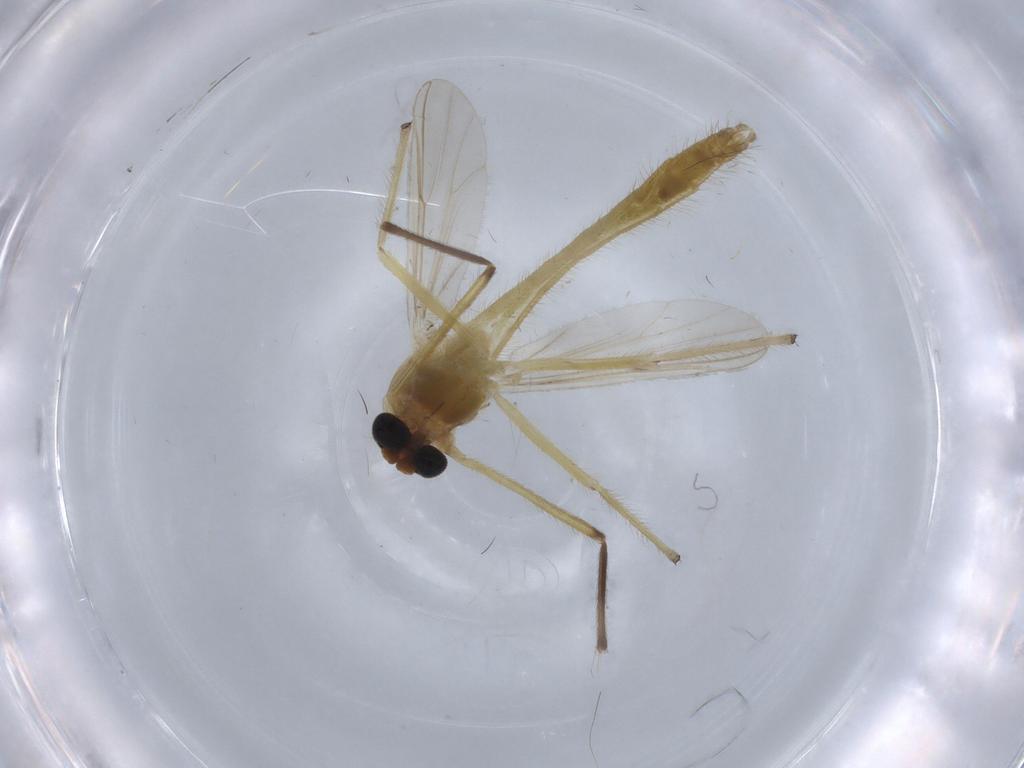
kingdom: Animalia
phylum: Arthropoda
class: Insecta
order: Diptera
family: Chironomidae
